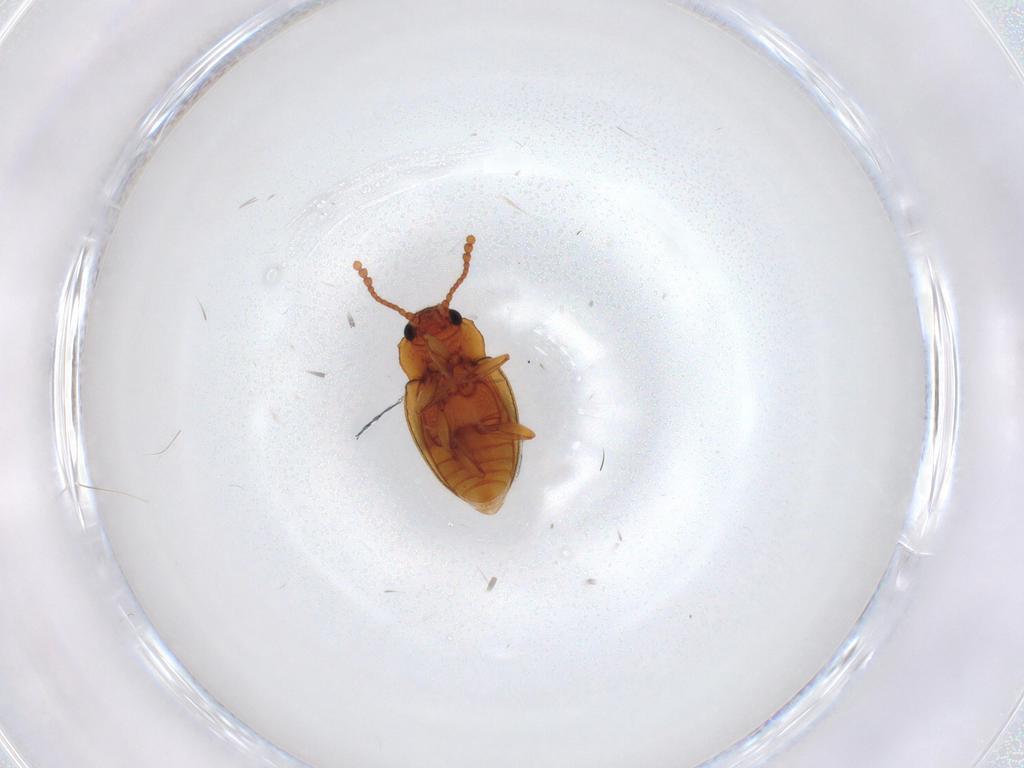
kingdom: Animalia
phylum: Arthropoda
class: Insecta
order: Coleoptera
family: Erotylidae
